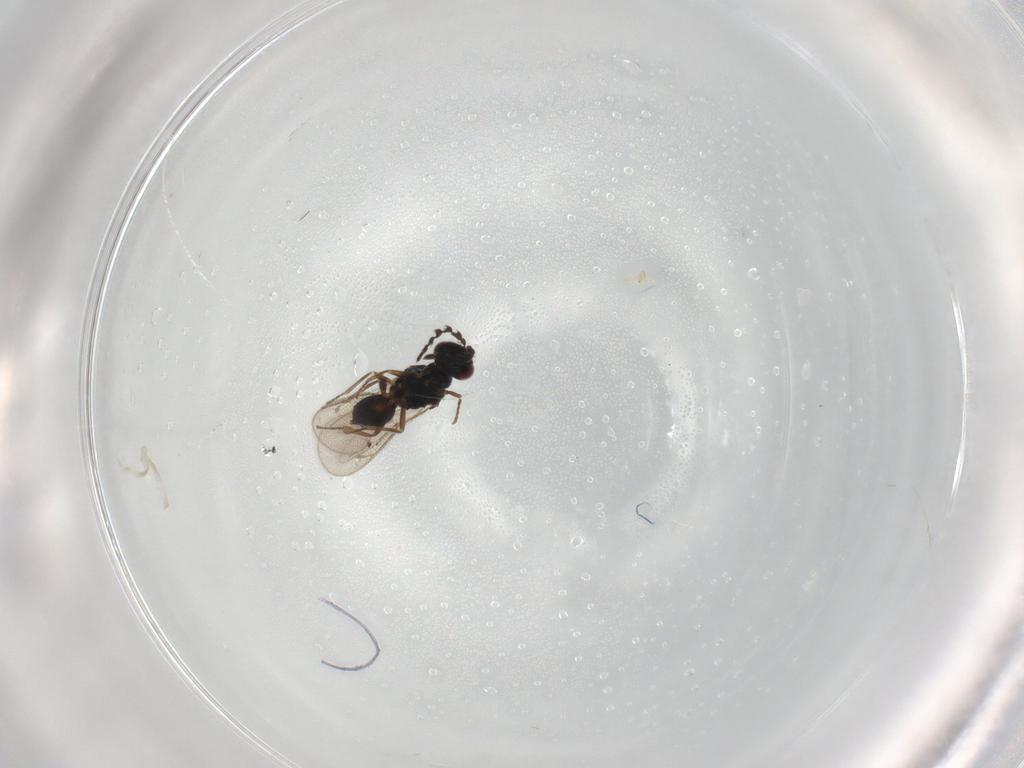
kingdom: Animalia
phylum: Arthropoda
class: Insecta
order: Hymenoptera
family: Eulophidae
